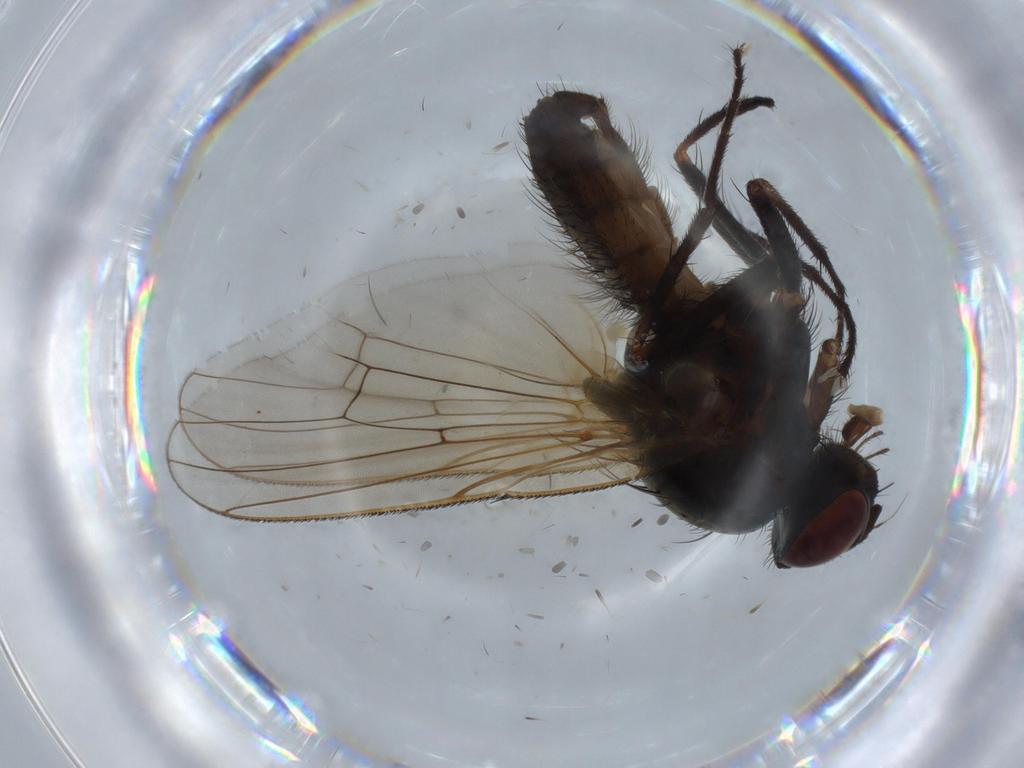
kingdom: Animalia
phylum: Arthropoda
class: Insecta
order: Diptera
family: Anthomyiidae
